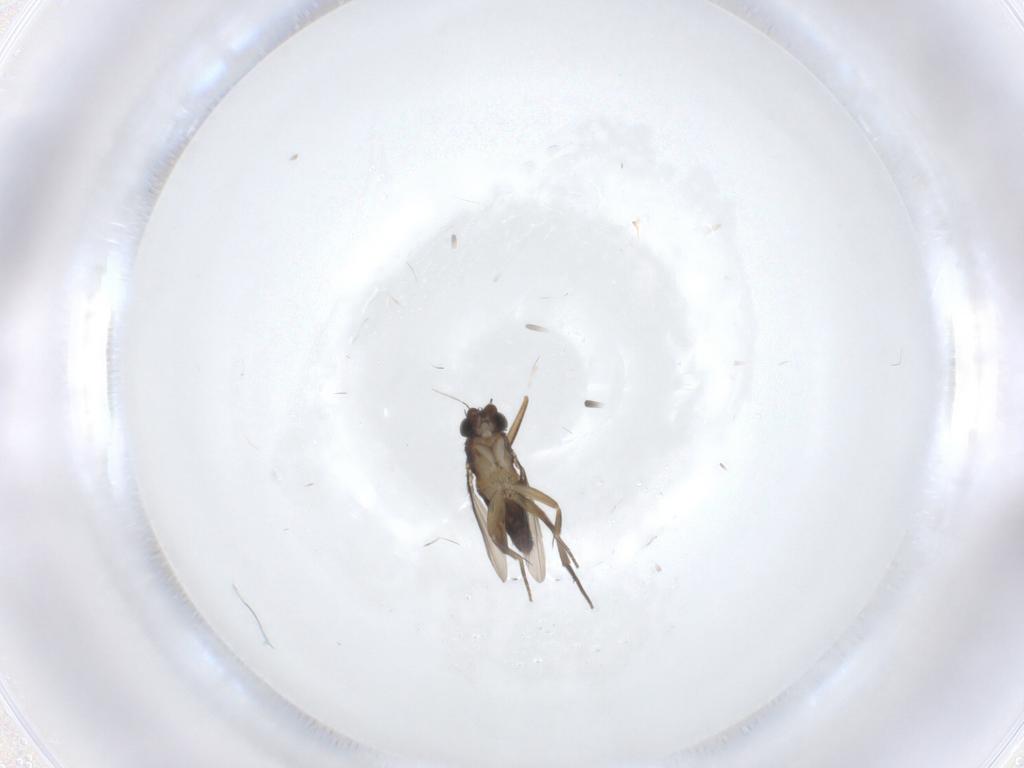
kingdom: Animalia
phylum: Arthropoda
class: Insecta
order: Diptera
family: Phoridae
